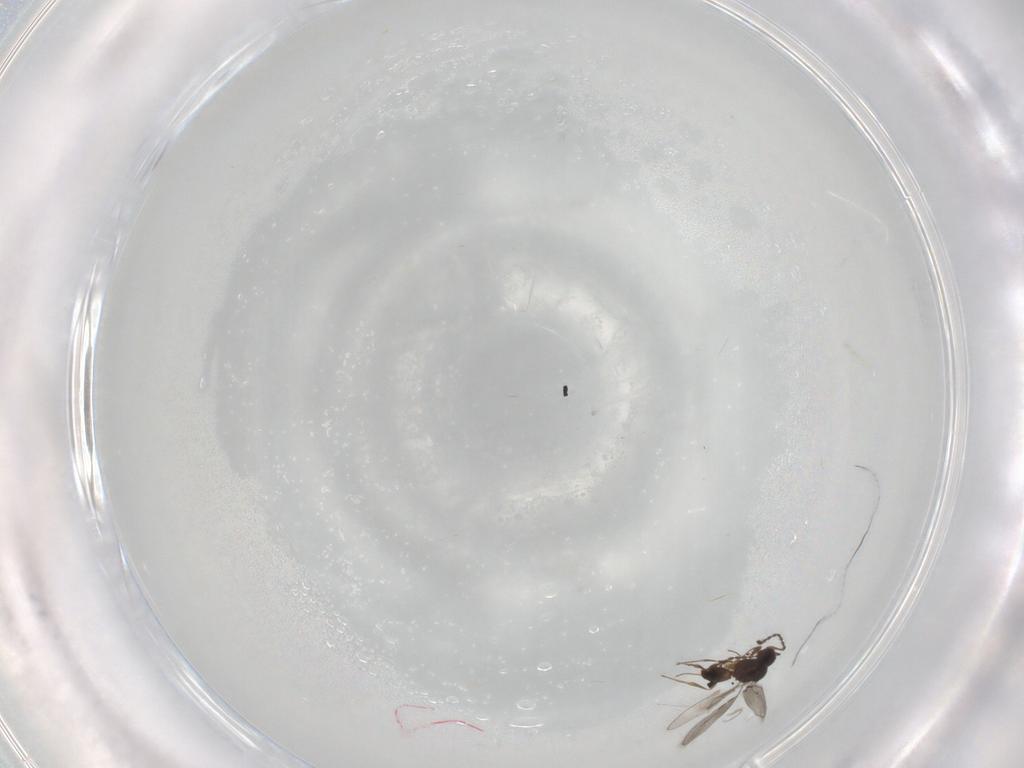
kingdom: Animalia
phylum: Arthropoda
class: Insecta
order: Hymenoptera
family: Ceraphronidae
